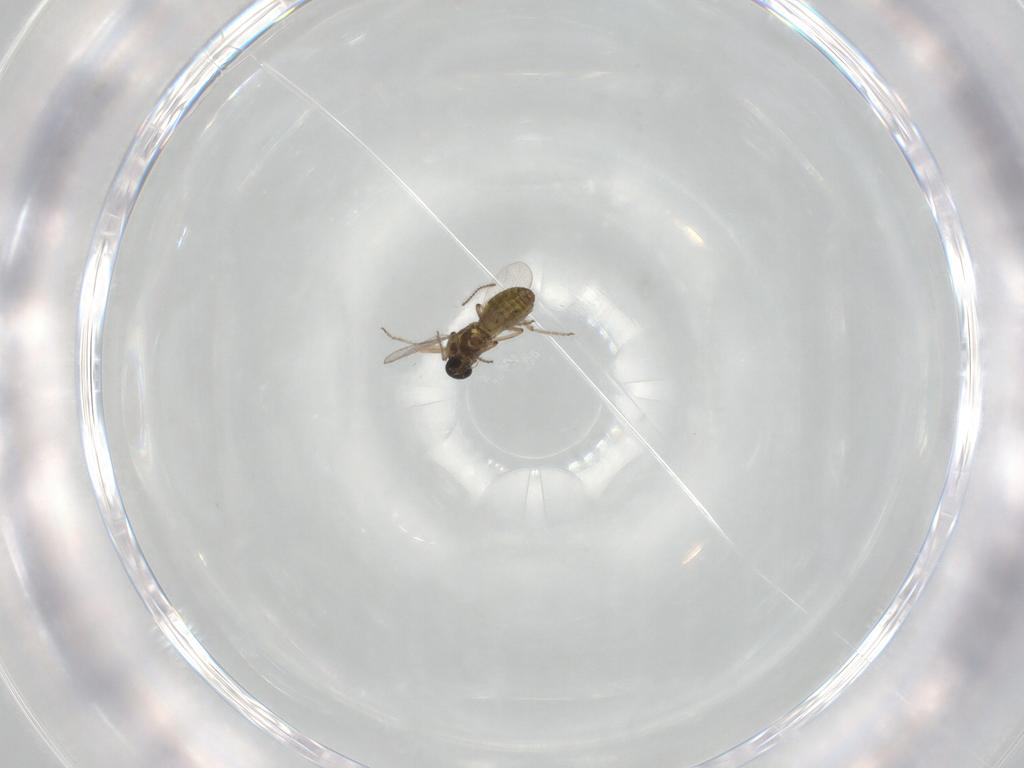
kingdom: Animalia
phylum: Arthropoda
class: Insecta
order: Diptera
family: Ceratopogonidae
